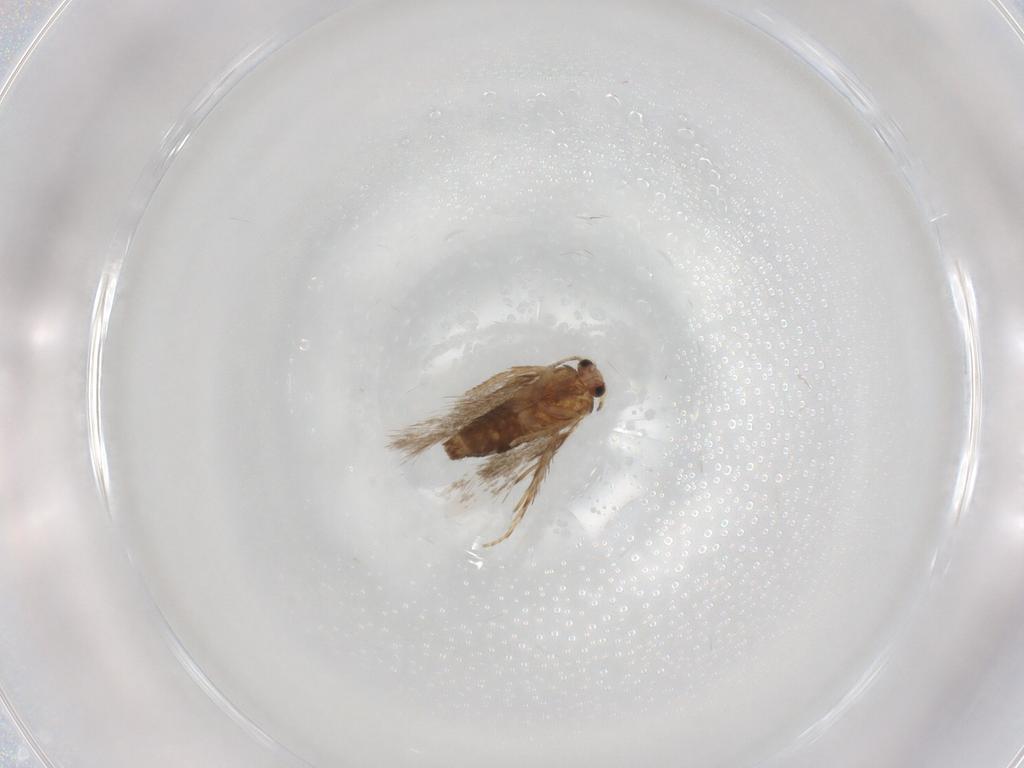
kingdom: Animalia
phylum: Arthropoda
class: Insecta
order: Lepidoptera
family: Nepticulidae
